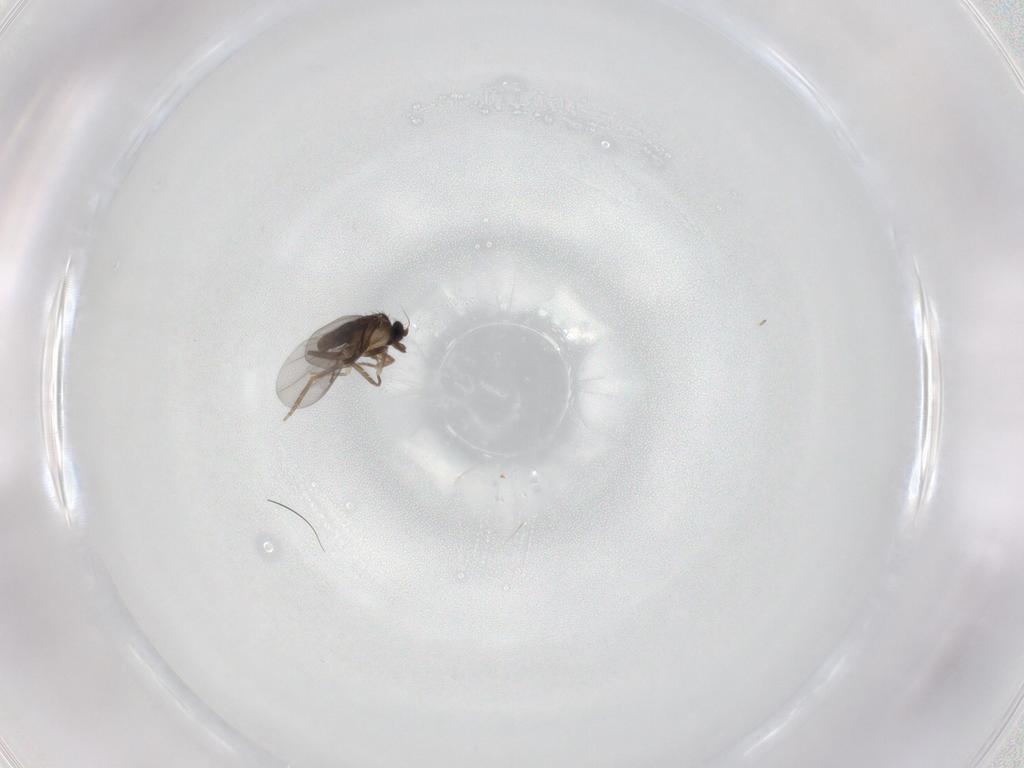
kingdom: Animalia
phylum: Arthropoda
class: Insecta
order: Diptera
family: Phoridae
